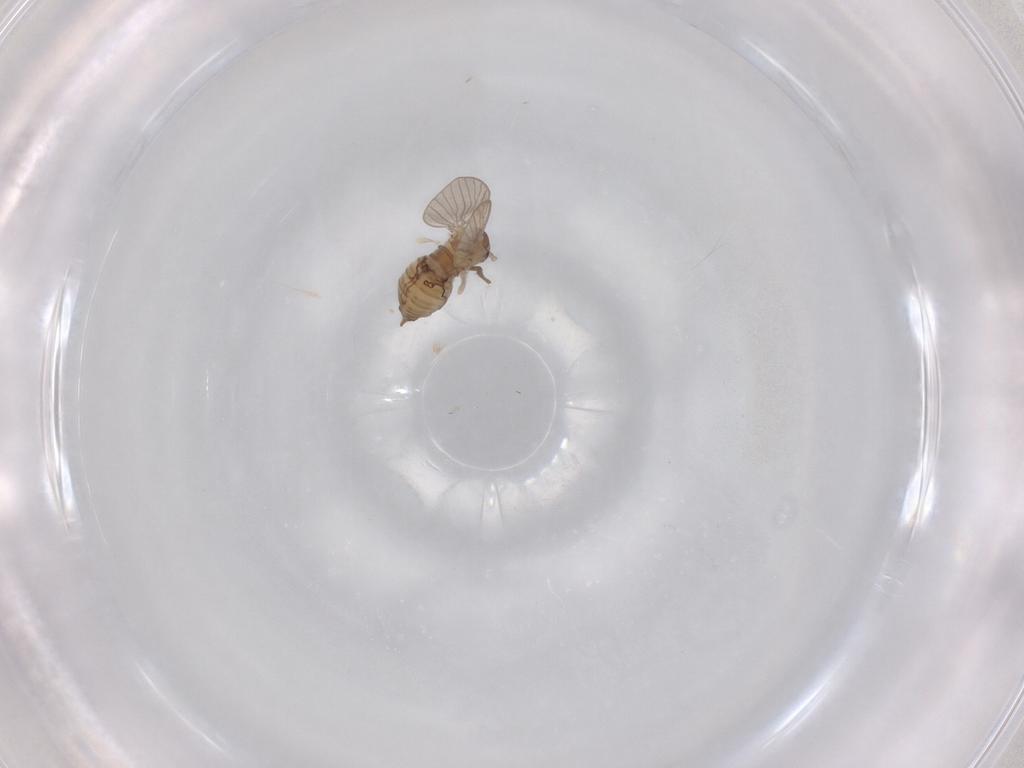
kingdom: Animalia
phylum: Arthropoda
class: Insecta
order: Diptera
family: Psychodidae
